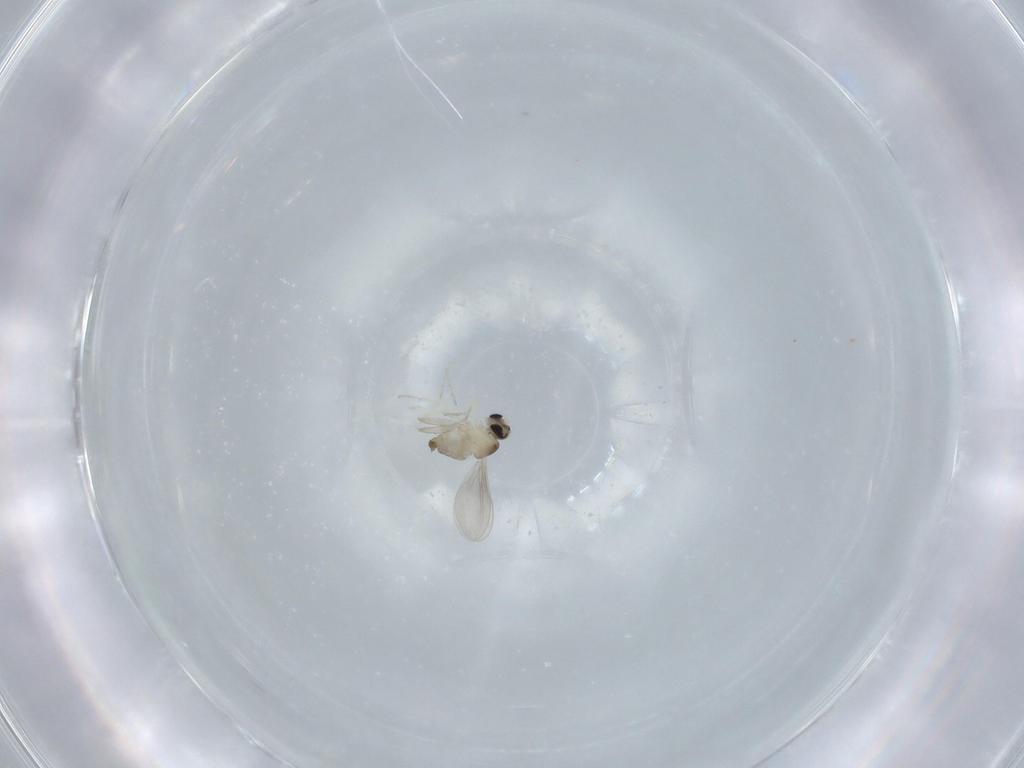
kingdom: Animalia
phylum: Arthropoda
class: Insecta
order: Diptera
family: Cecidomyiidae
